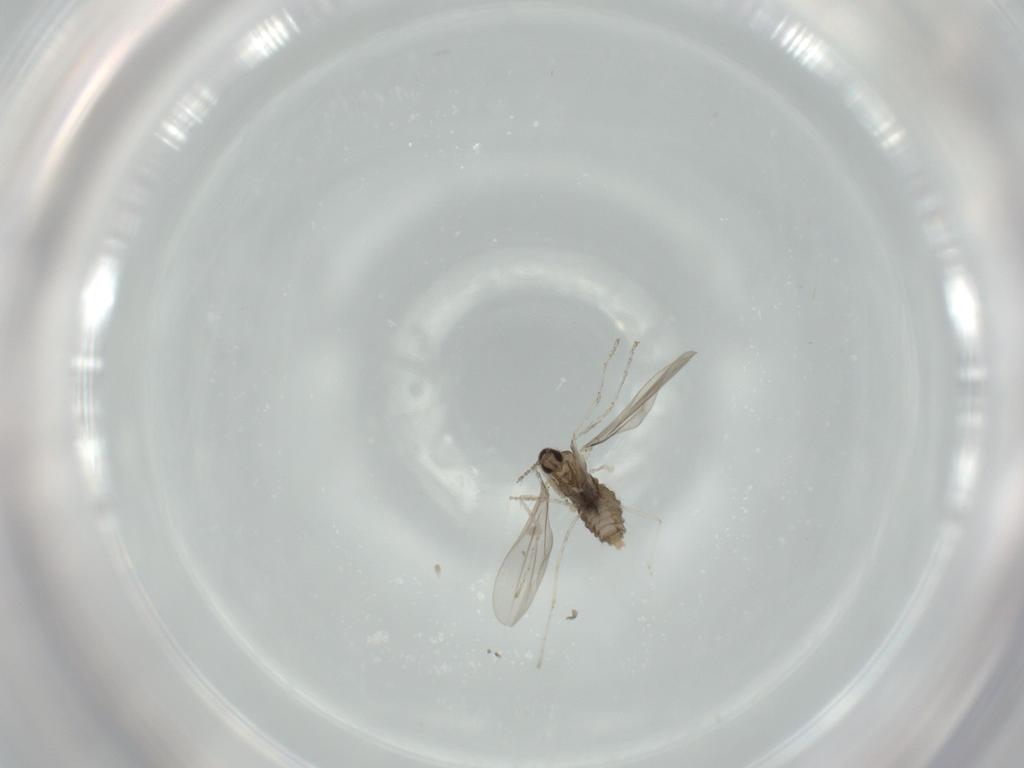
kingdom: Animalia
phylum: Arthropoda
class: Insecta
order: Diptera
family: Cecidomyiidae
